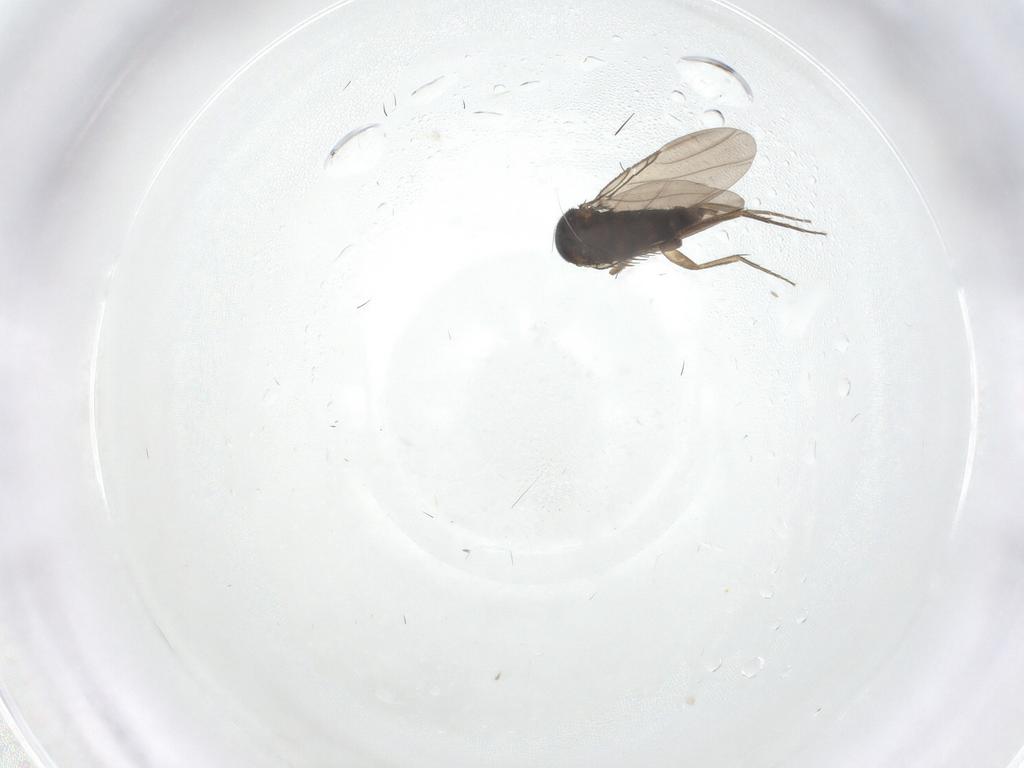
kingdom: Animalia
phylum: Arthropoda
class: Insecta
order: Diptera
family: Phoridae
